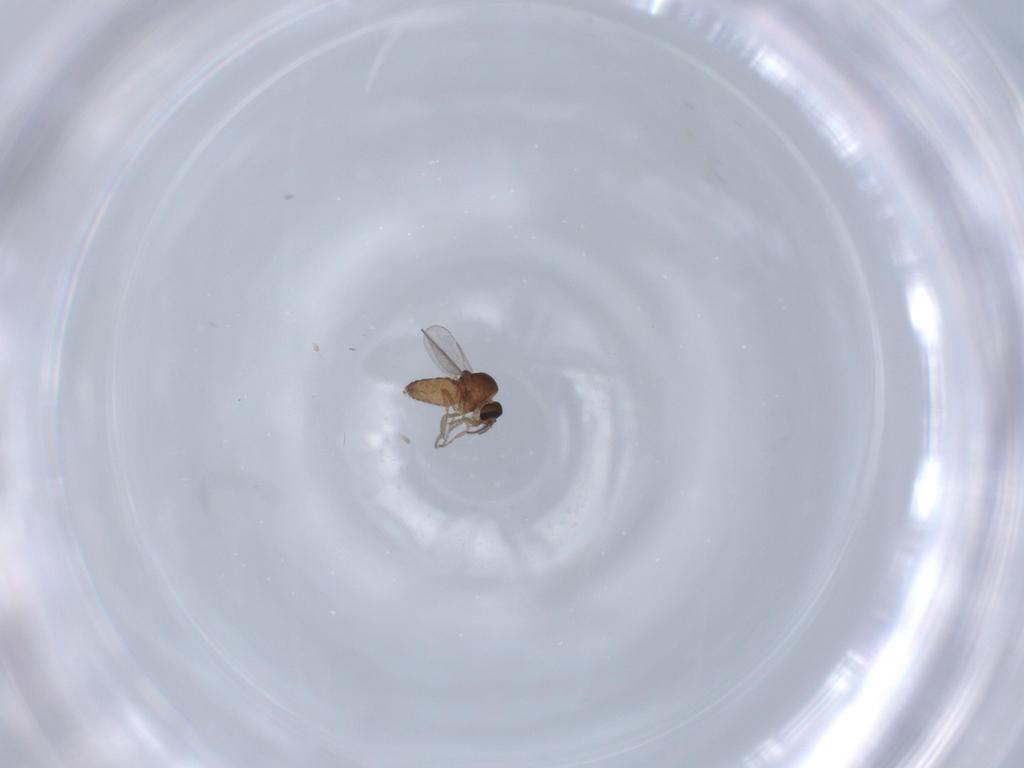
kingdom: Animalia
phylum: Arthropoda
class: Insecta
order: Diptera
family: Ceratopogonidae
